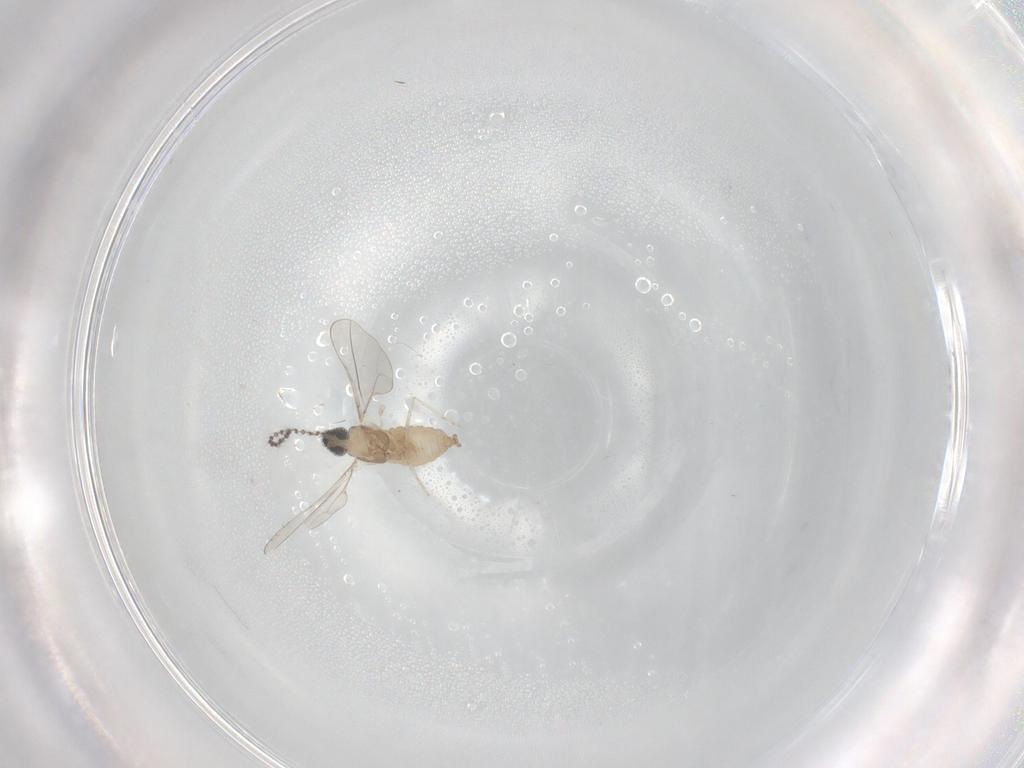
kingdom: Animalia
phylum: Arthropoda
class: Insecta
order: Diptera
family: Cecidomyiidae
